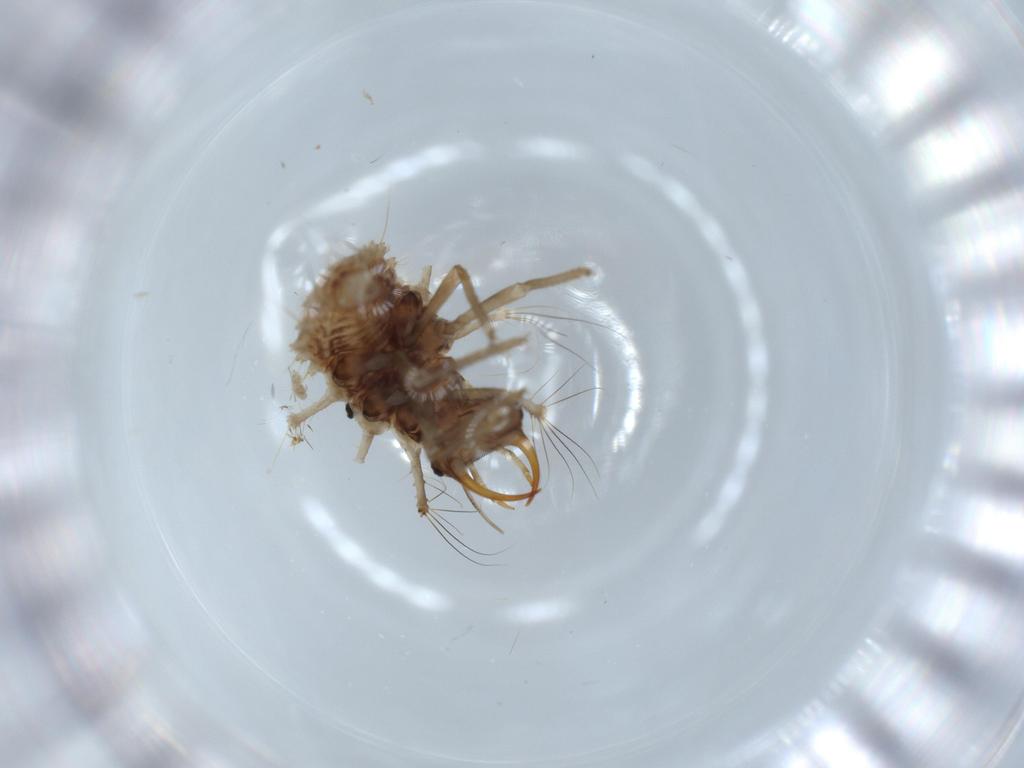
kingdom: Animalia
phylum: Arthropoda
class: Insecta
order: Neuroptera
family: Chrysopidae
